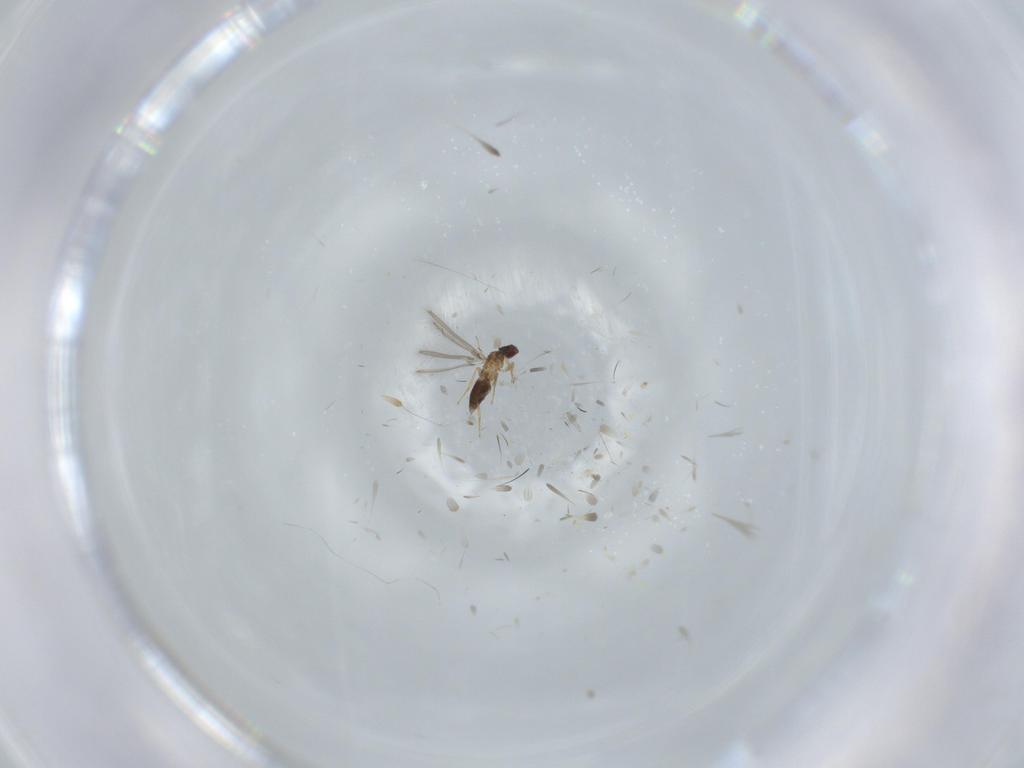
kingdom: Animalia
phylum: Arthropoda
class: Insecta
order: Hymenoptera
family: Mymaridae
